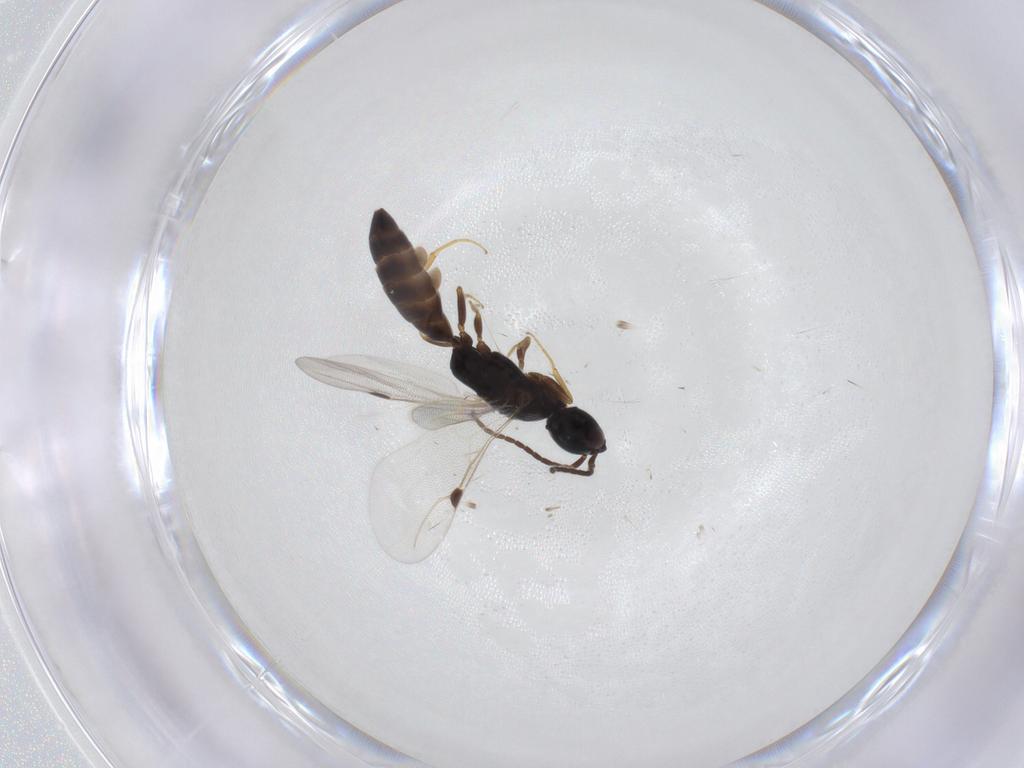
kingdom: Animalia
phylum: Arthropoda
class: Insecta
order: Hymenoptera
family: Bethylidae
